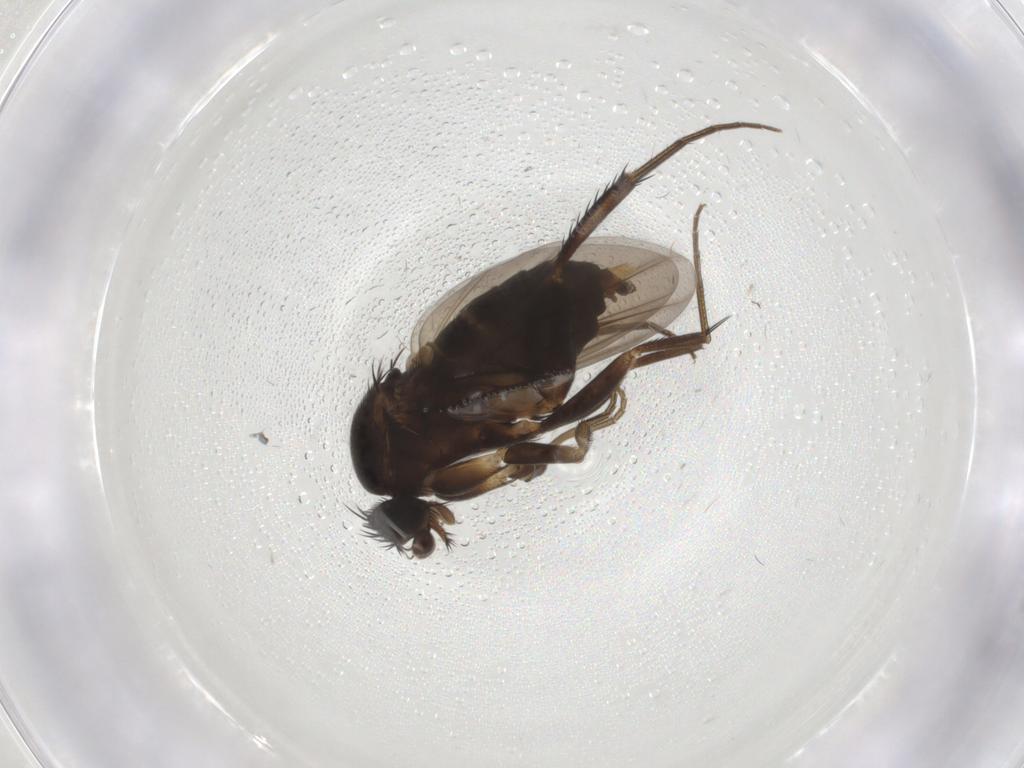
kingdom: Animalia
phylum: Arthropoda
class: Insecta
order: Diptera
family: Phoridae
